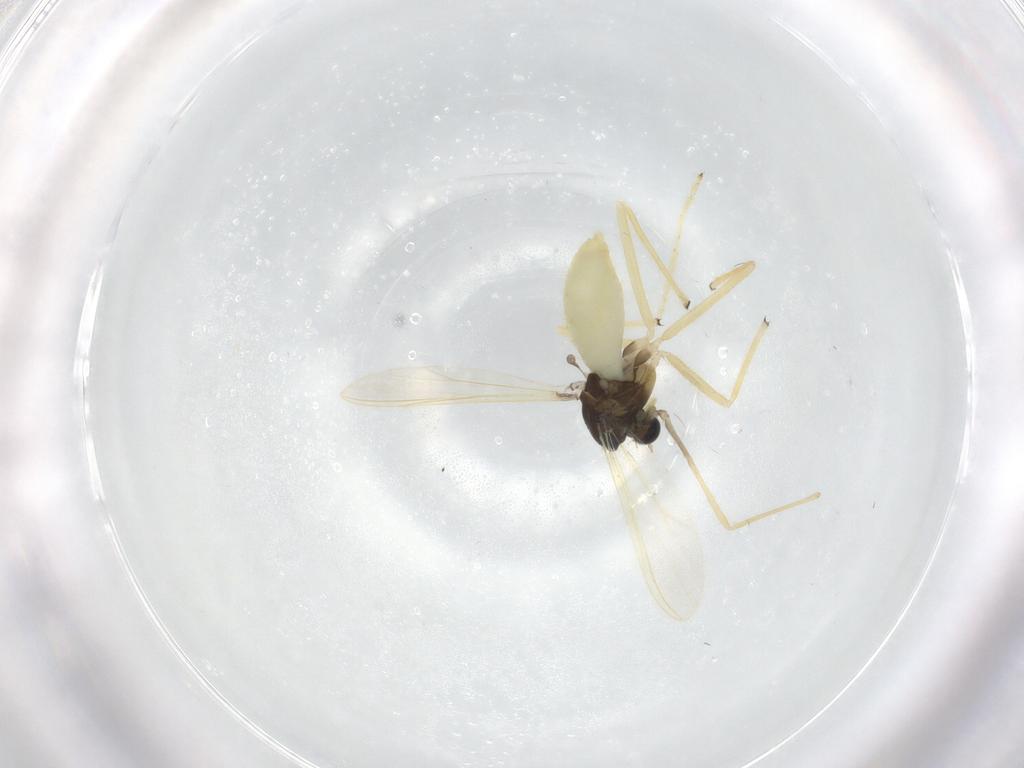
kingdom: Animalia
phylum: Arthropoda
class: Insecta
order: Diptera
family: Chironomidae
